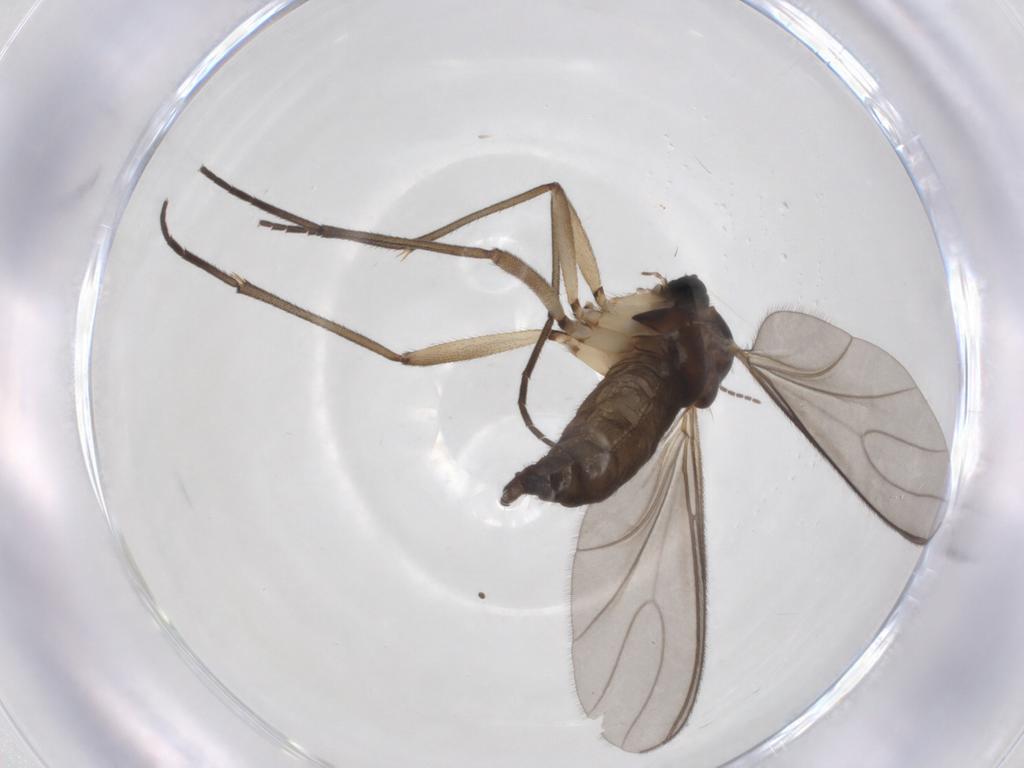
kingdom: Animalia
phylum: Arthropoda
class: Insecta
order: Diptera
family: Sciaridae
